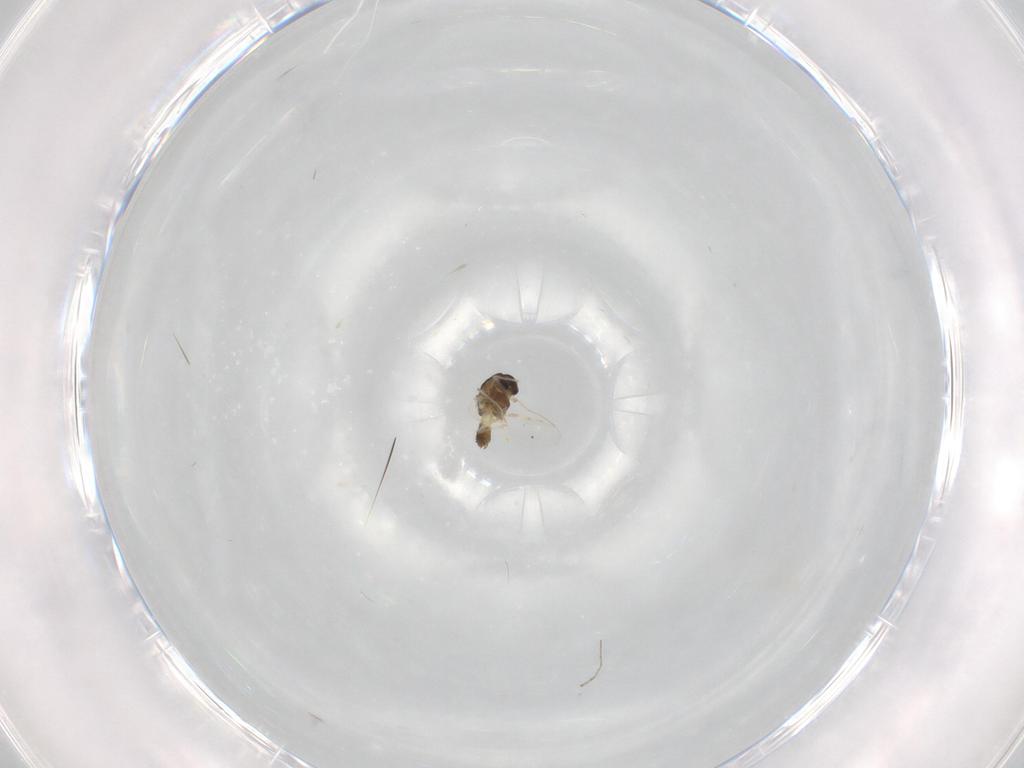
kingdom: Animalia
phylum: Arthropoda
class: Insecta
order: Diptera
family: Chironomidae
